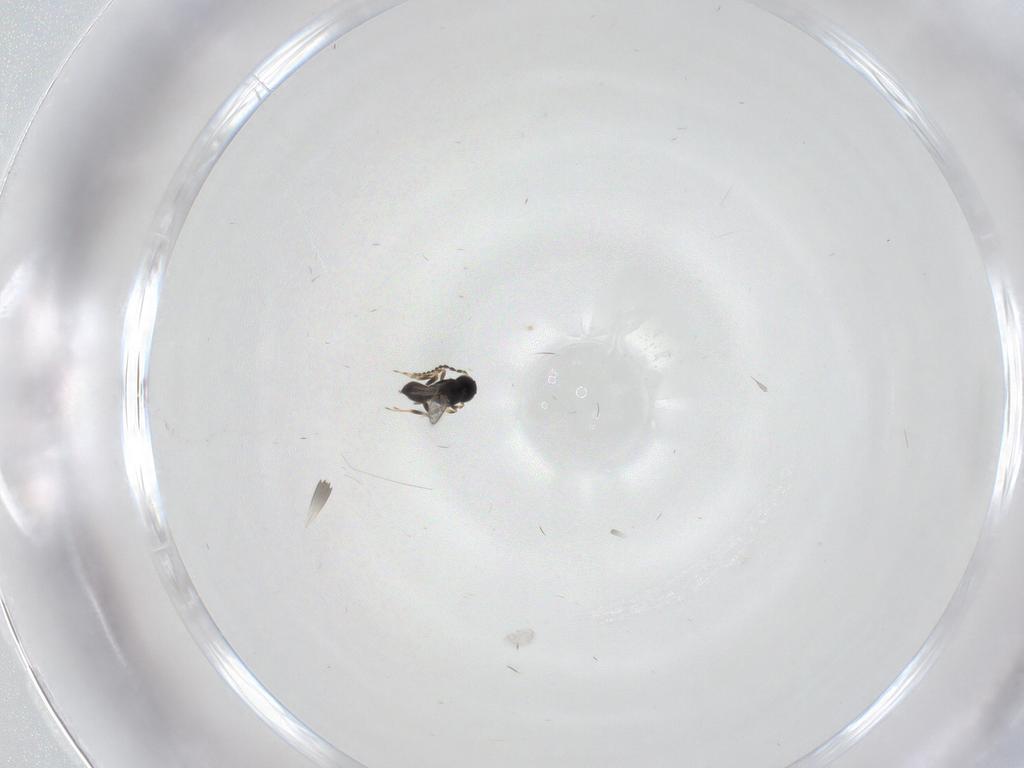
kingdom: Animalia
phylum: Arthropoda
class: Insecta
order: Hymenoptera
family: Scelionidae
